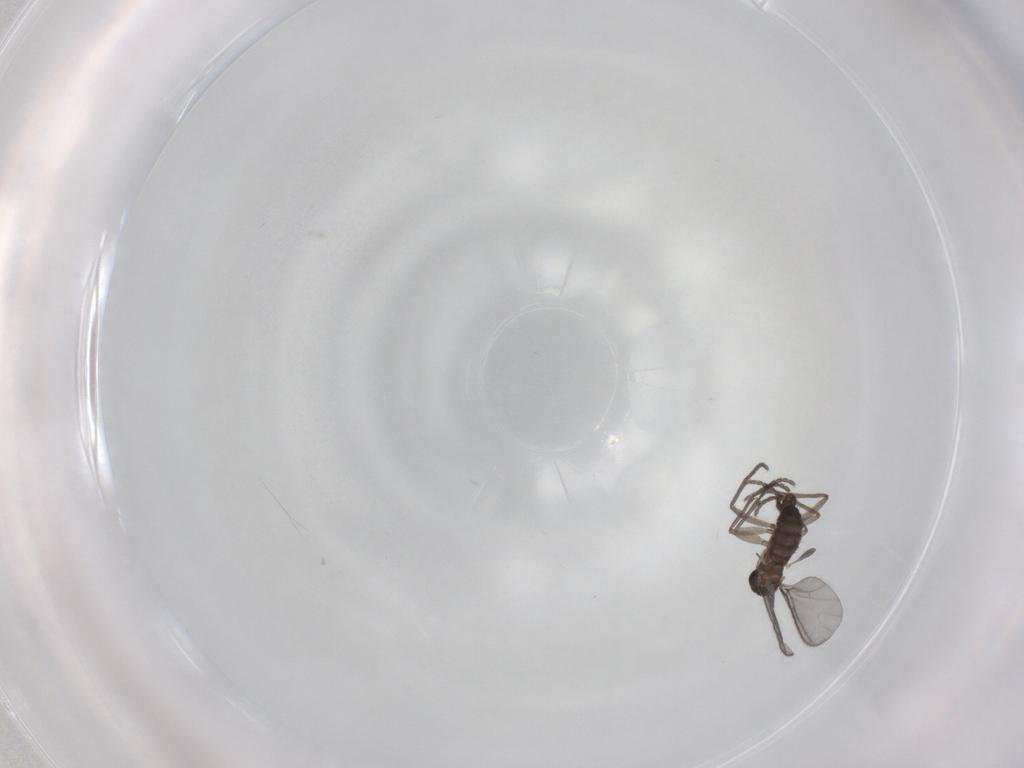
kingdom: Animalia
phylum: Arthropoda
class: Insecta
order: Diptera
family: Sciaridae
